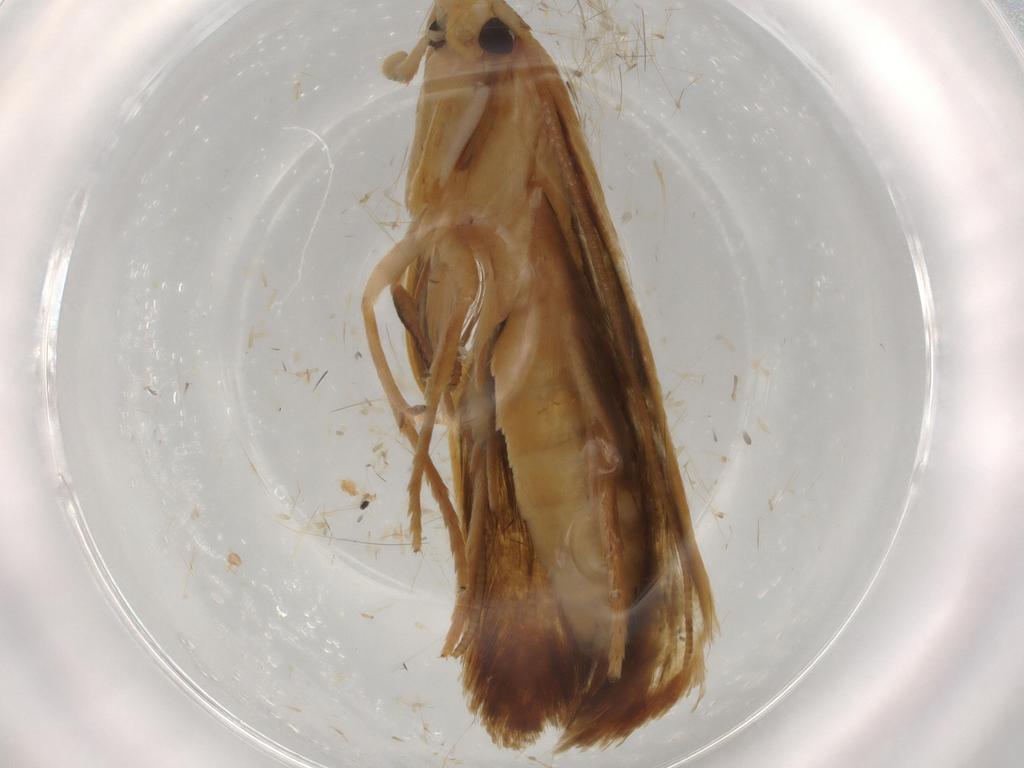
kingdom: Animalia
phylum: Arthropoda
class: Insecta
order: Lepidoptera
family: Tineidae
